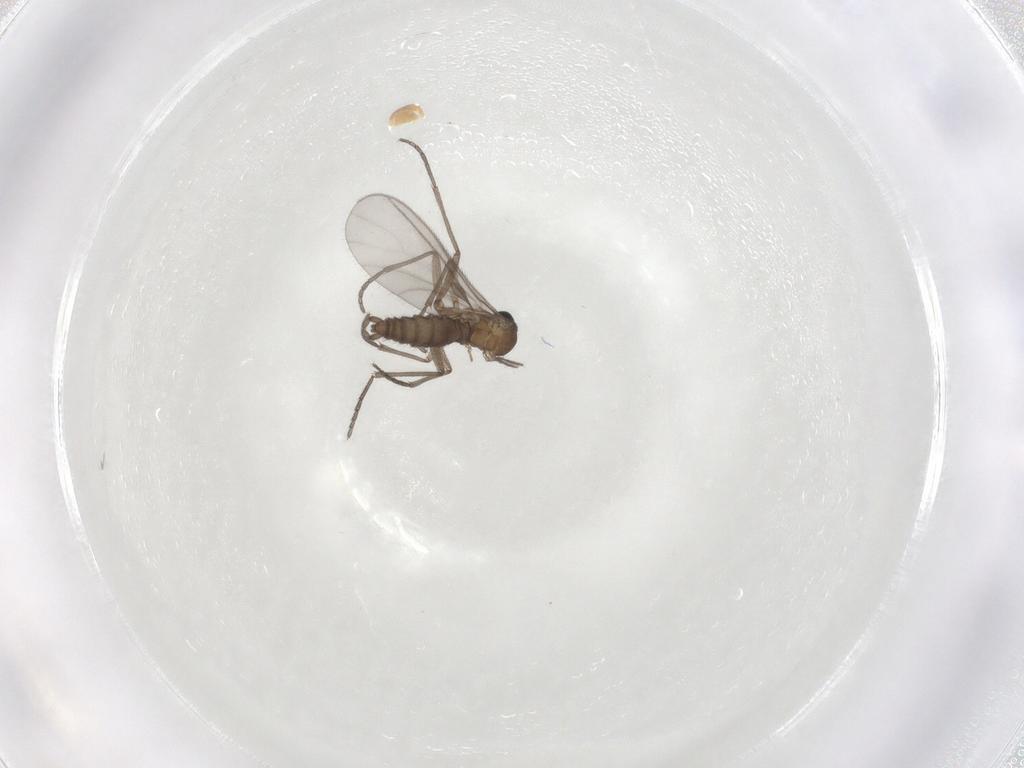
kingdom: Animalia
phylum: Arthropoda
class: Insecta
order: Diptera
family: Sciaridae
